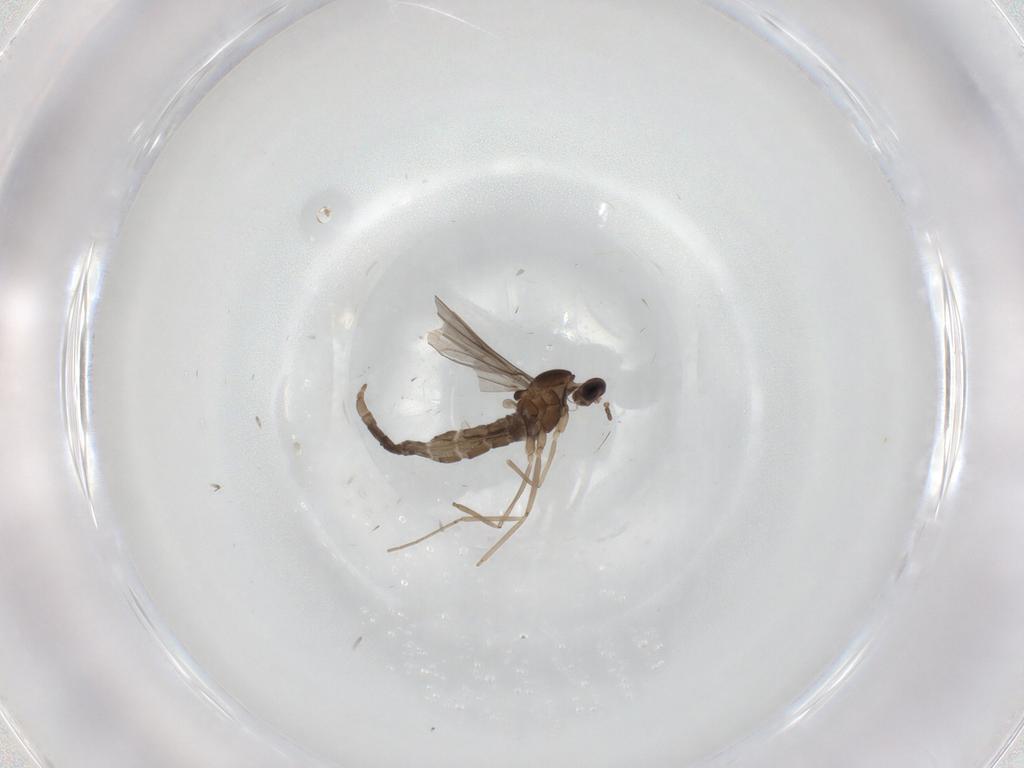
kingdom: Animalia
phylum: Arthropoda
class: Insecta
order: Diptera
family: Cecidomyiidae
